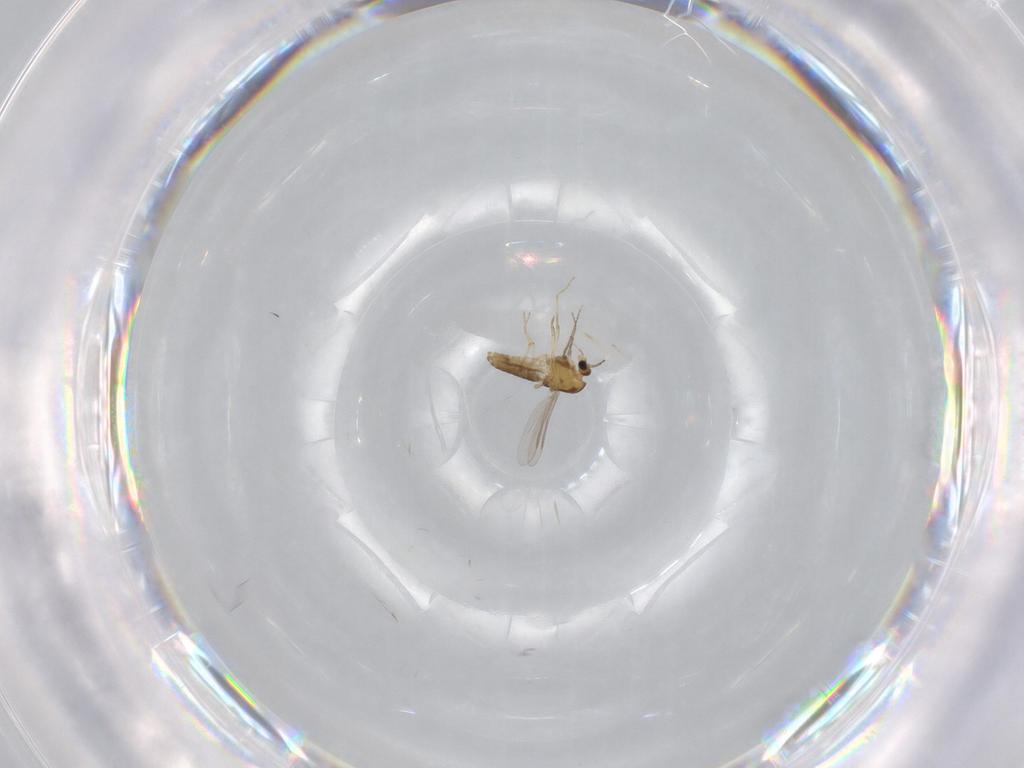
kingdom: Animalia
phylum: Arthropoda
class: Insecta
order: Diptera
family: Chironomidae
